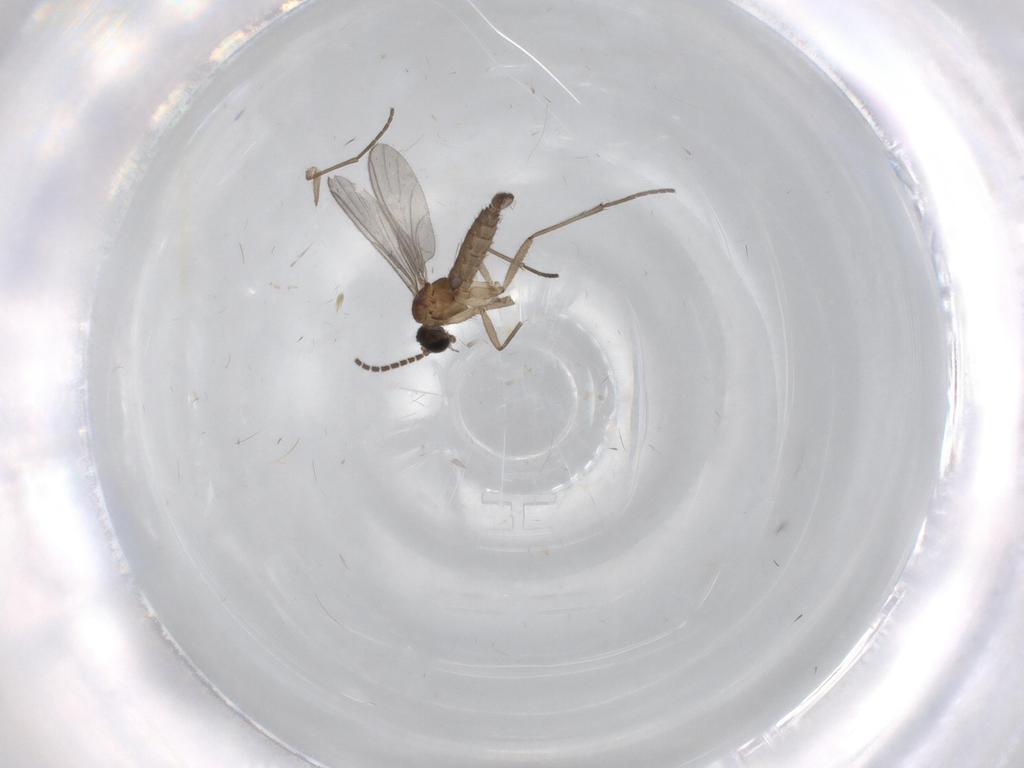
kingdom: Animalia
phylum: Arthropoda
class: Insecta
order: Diptera
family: Sciaridae
